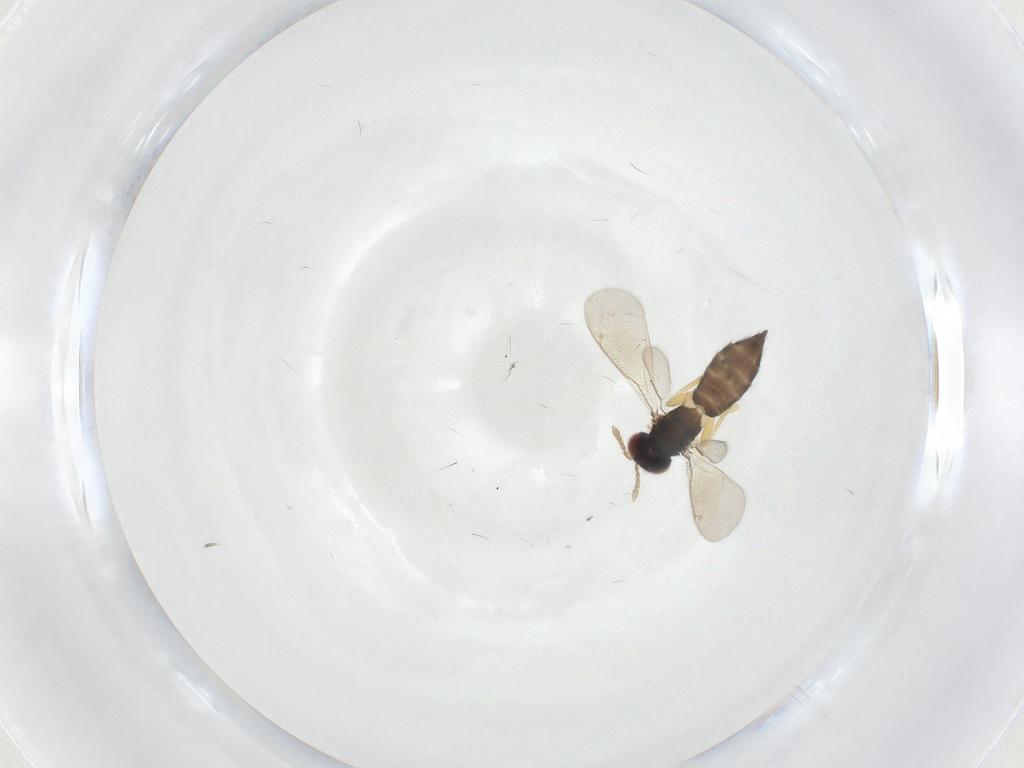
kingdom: Animalia
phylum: Arthropoda
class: Insecta
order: Hymenoptera
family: Eulophidae
